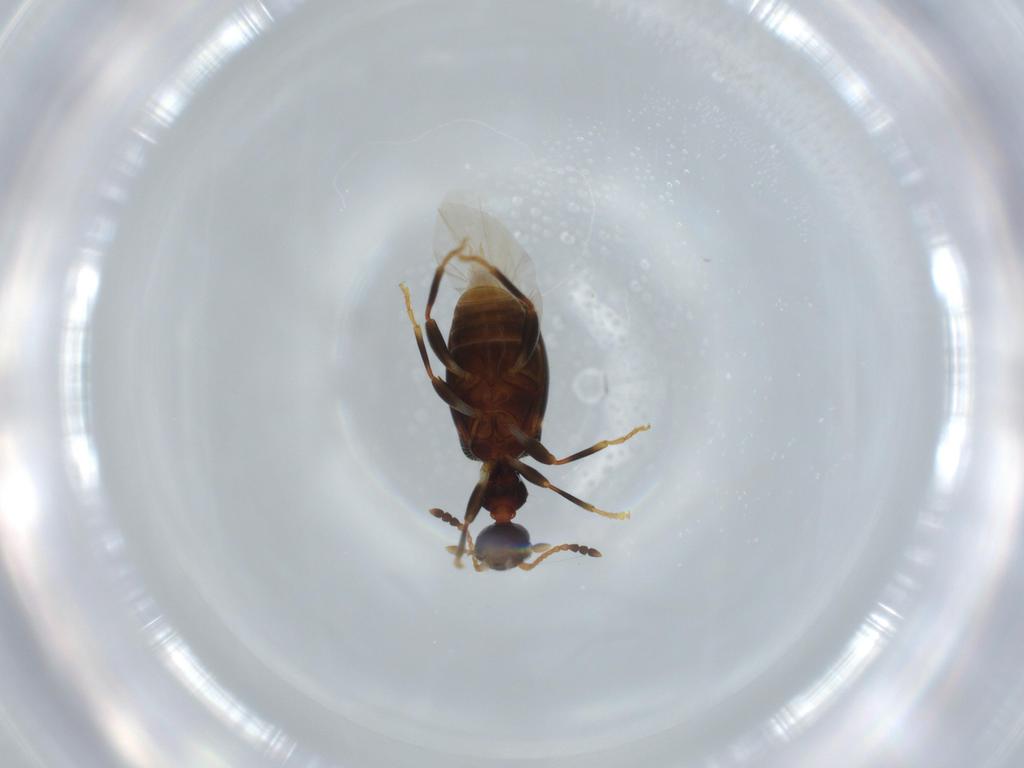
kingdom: Animalia
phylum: Arthropoda
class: Insecta
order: Coleoptera
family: Anthicidae
